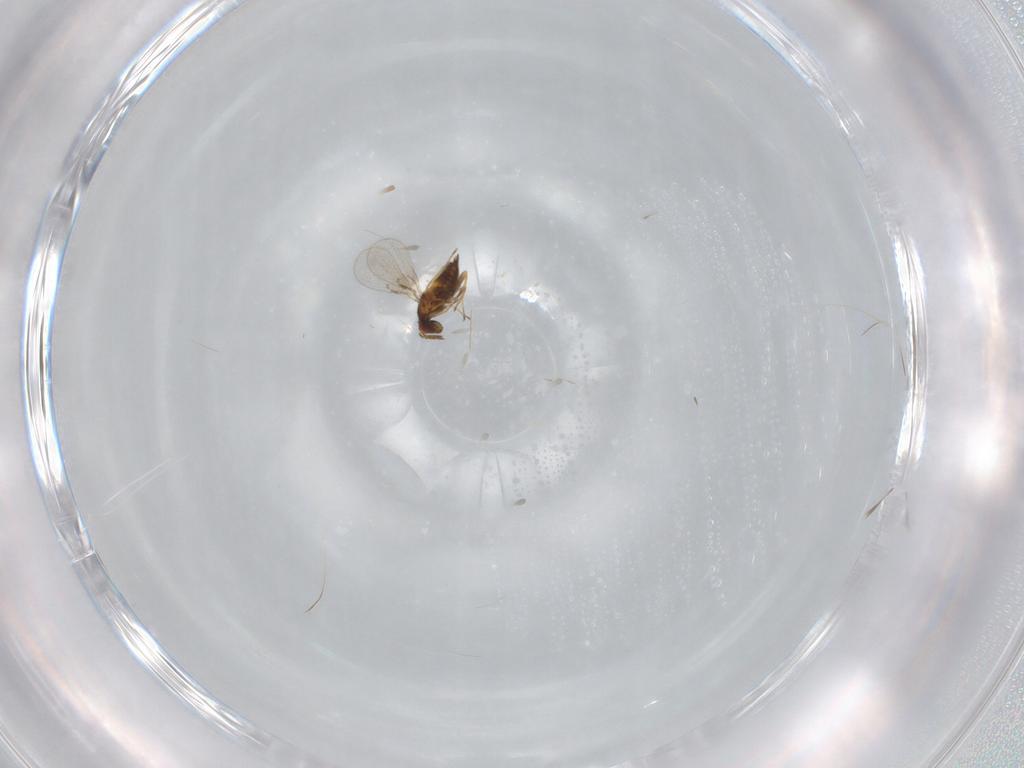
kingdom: Animalia
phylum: Arthropoda
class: Insecta
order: Hymenoptera
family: Trichogrammatidae
